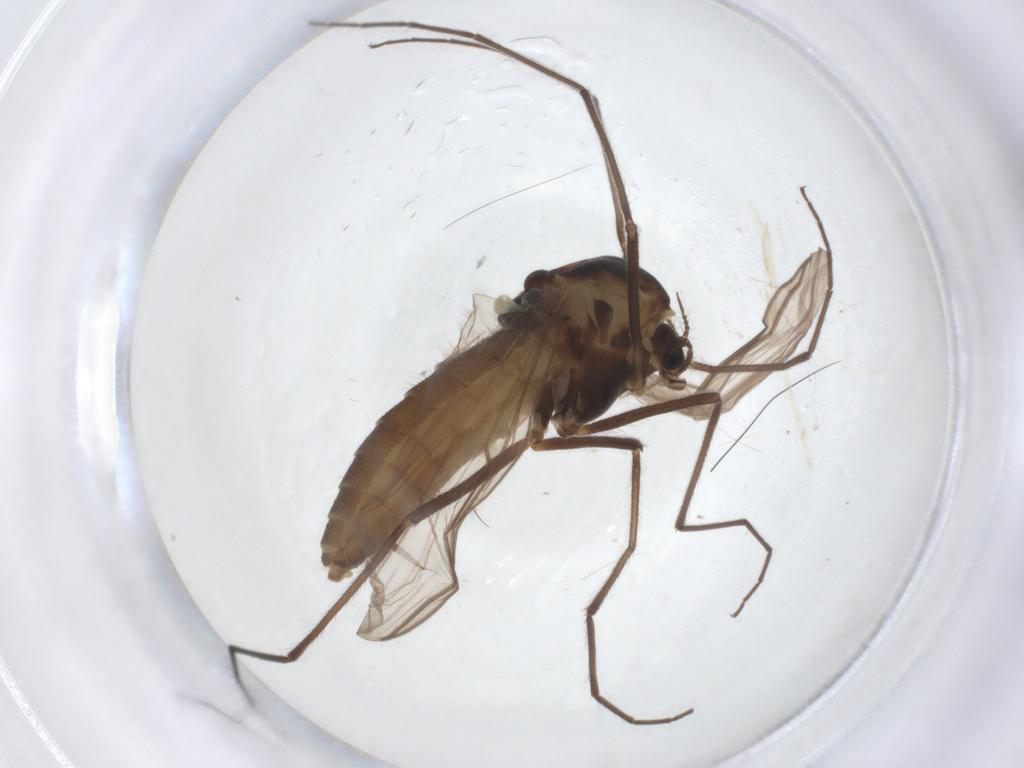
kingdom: Animalia
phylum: Arthropoda
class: Insecta
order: Diptera
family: Chironomidae
